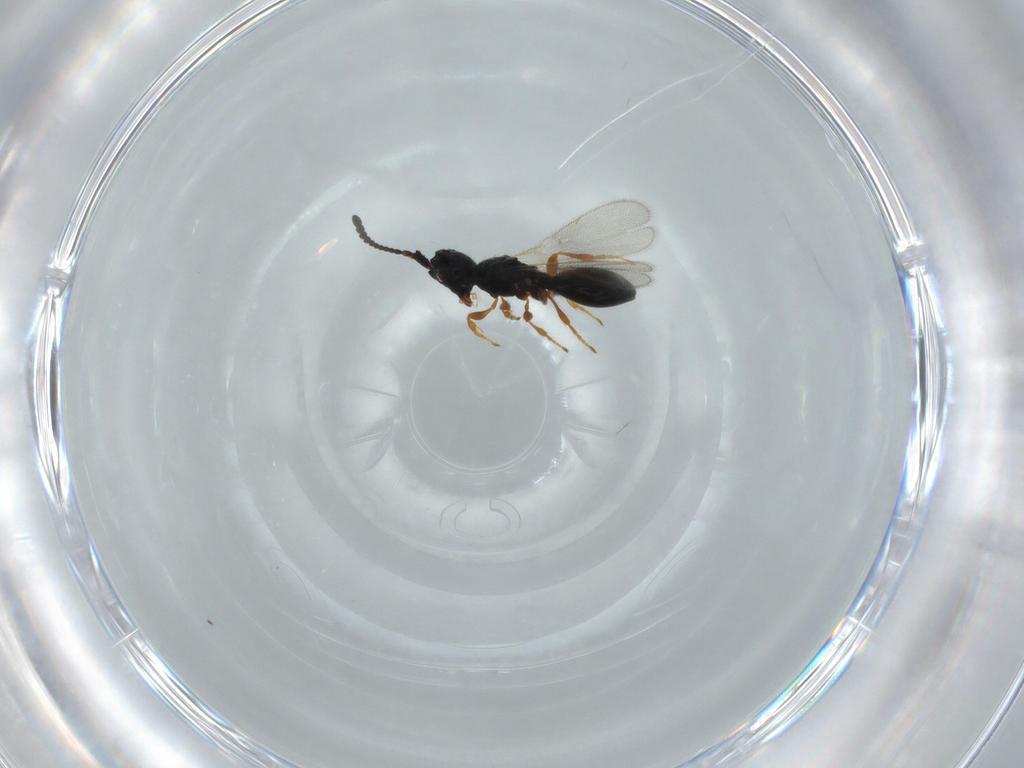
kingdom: Animalia
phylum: Arthropoda
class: Insecta
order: Hymenoptera
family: Diapriidae
